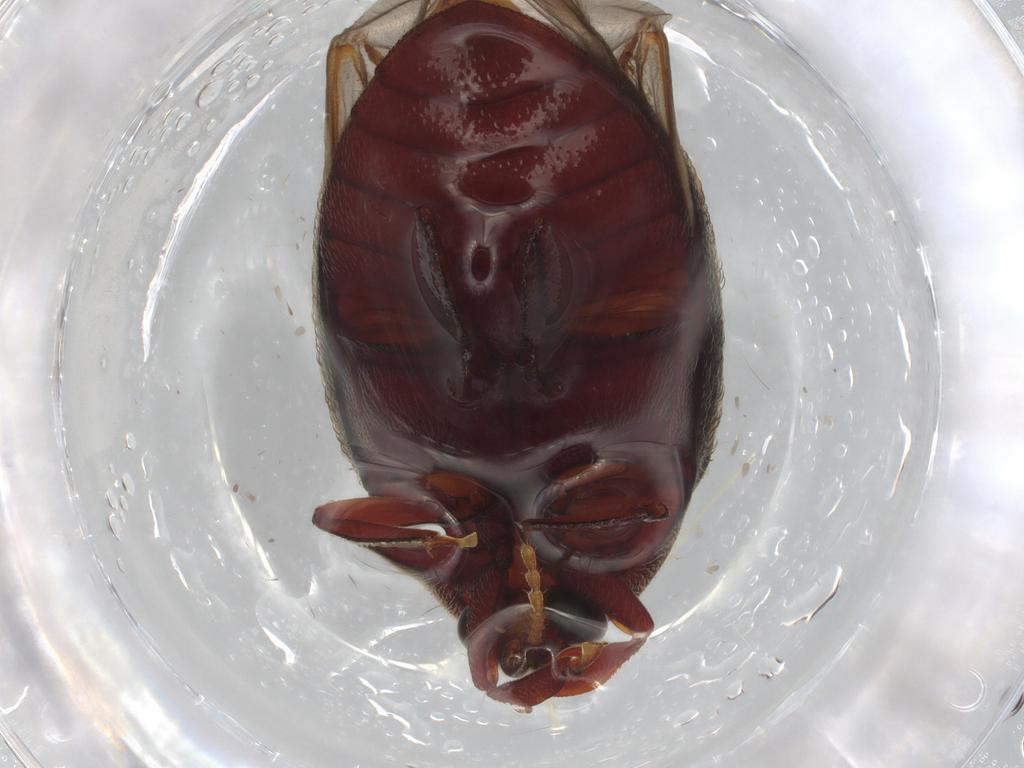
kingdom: Animalia
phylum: Arthropoda
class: Insecta
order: Coleoptera
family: Chelonariidae
